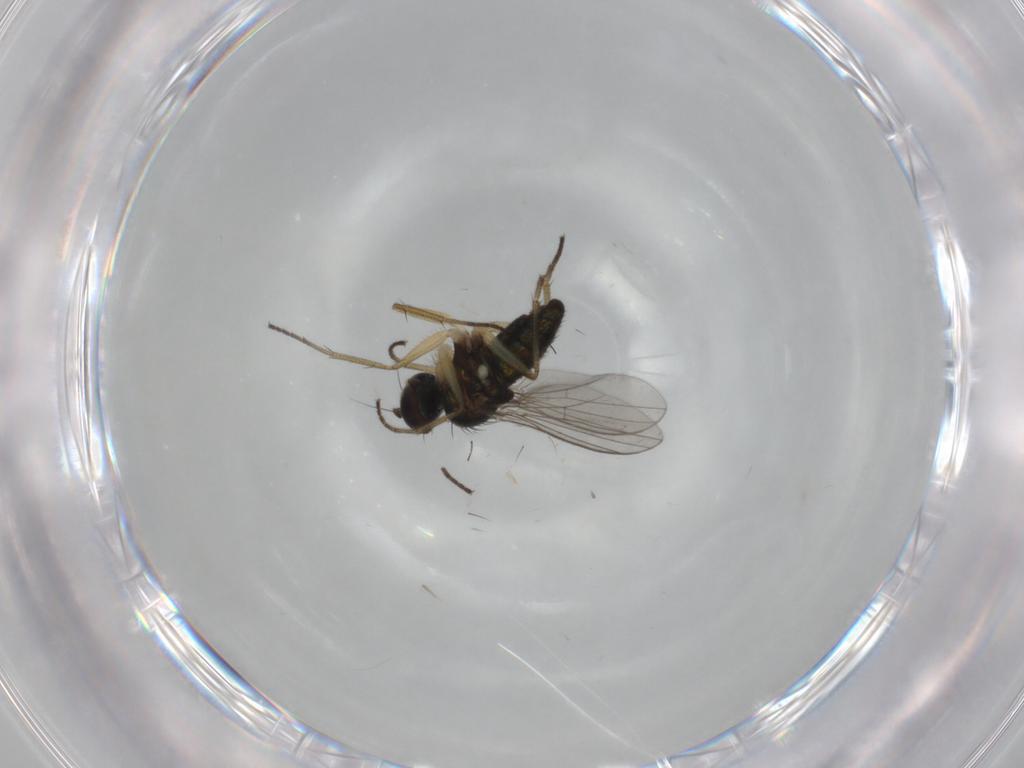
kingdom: Animalia
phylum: Arthropoda
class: Insecta
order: Diptera
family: Dolichopodidae
